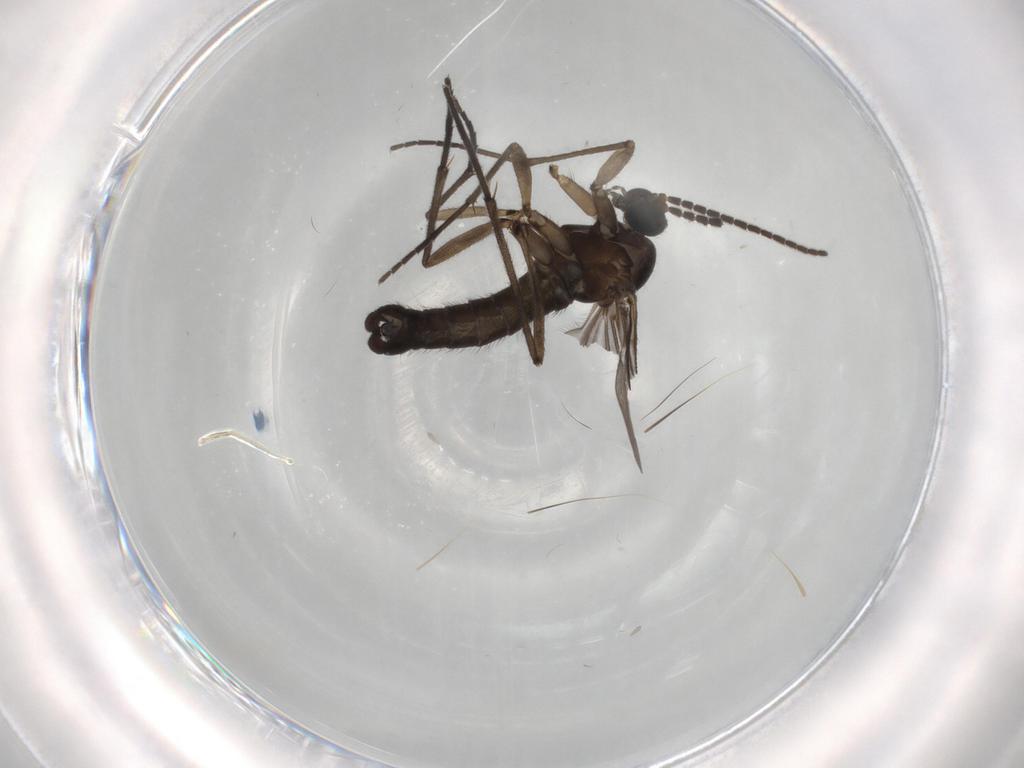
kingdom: Animalia
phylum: Arthropoda
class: Insecta
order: Diptera
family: Sciaridae
